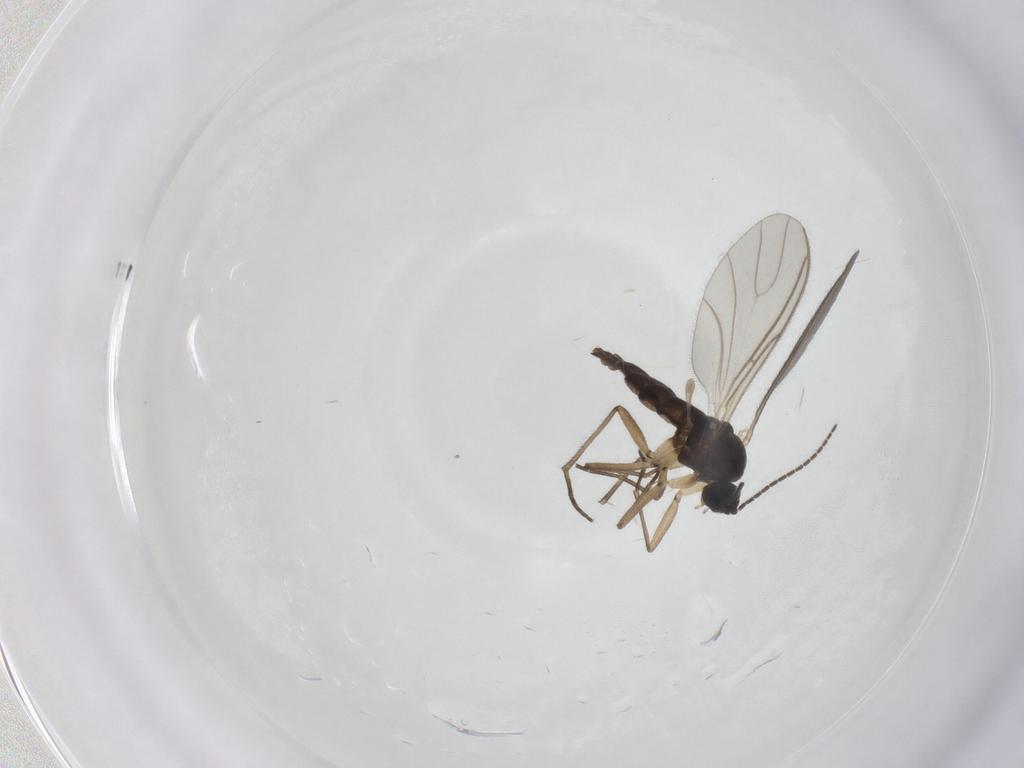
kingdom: Animalia
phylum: Arthropoda
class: Insecta
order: Diptera
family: Sciaridae
